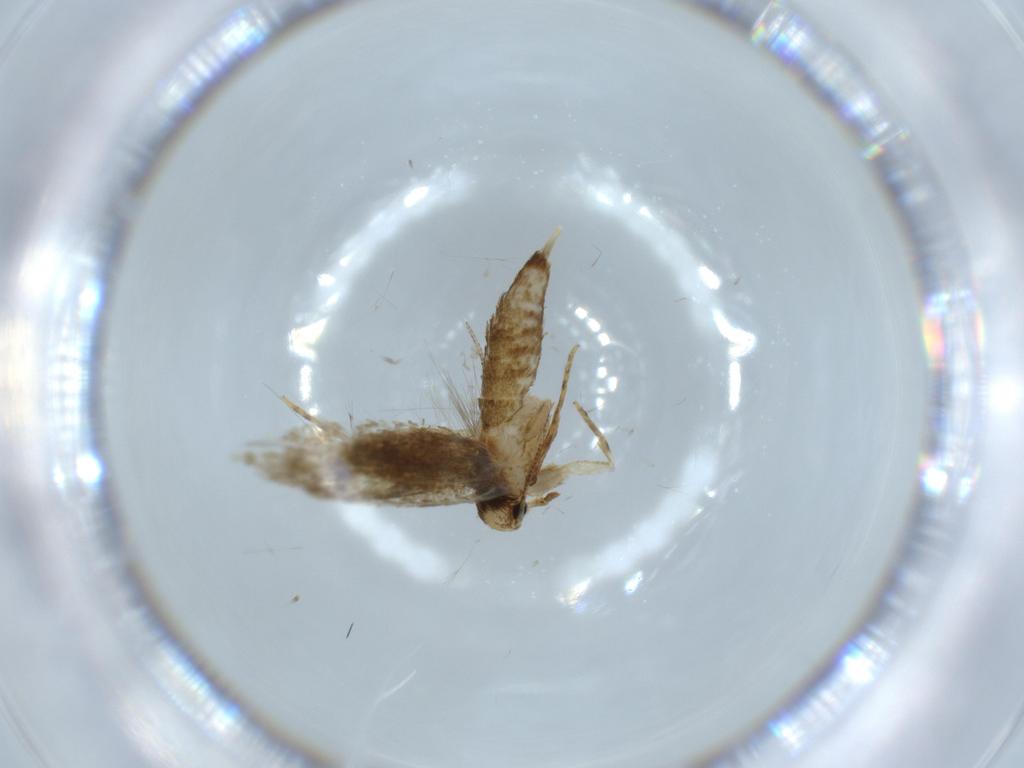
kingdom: Animalia
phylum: Arthropoda
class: Insecta
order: Lepidoptera
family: Tineidae
